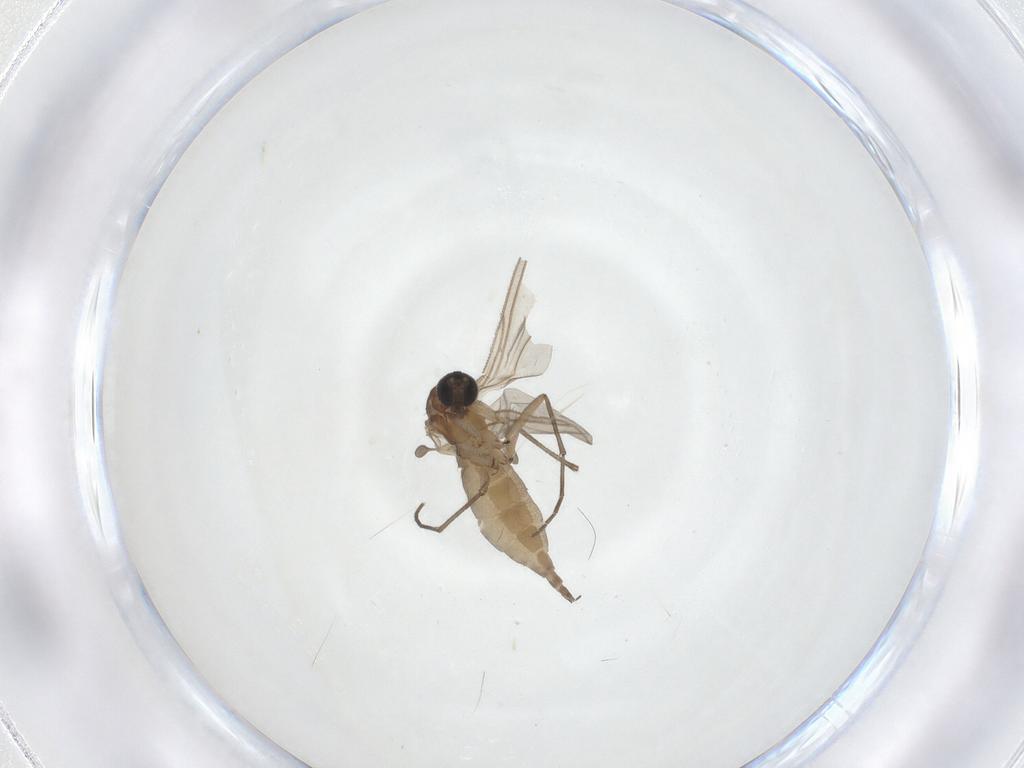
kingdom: Animalia
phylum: Arthropoda
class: Insecta
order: Diptera
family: Sciaridae
